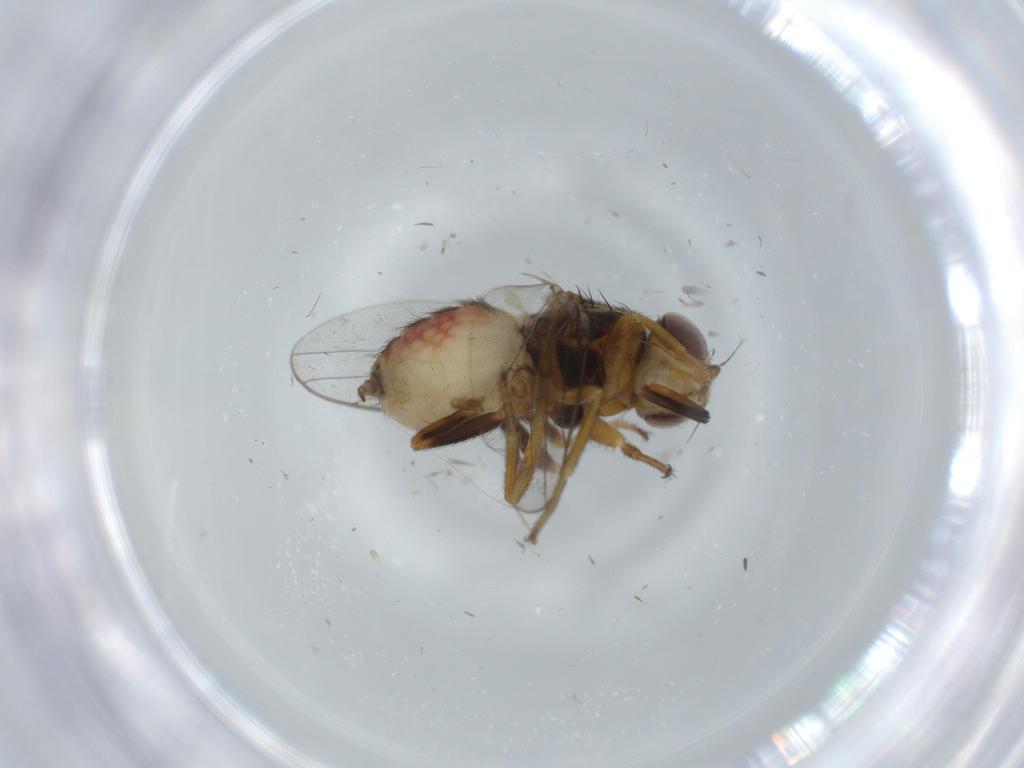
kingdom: Animalia
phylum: Arthropoda
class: Insecta
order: Diptera
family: Chloropidae
